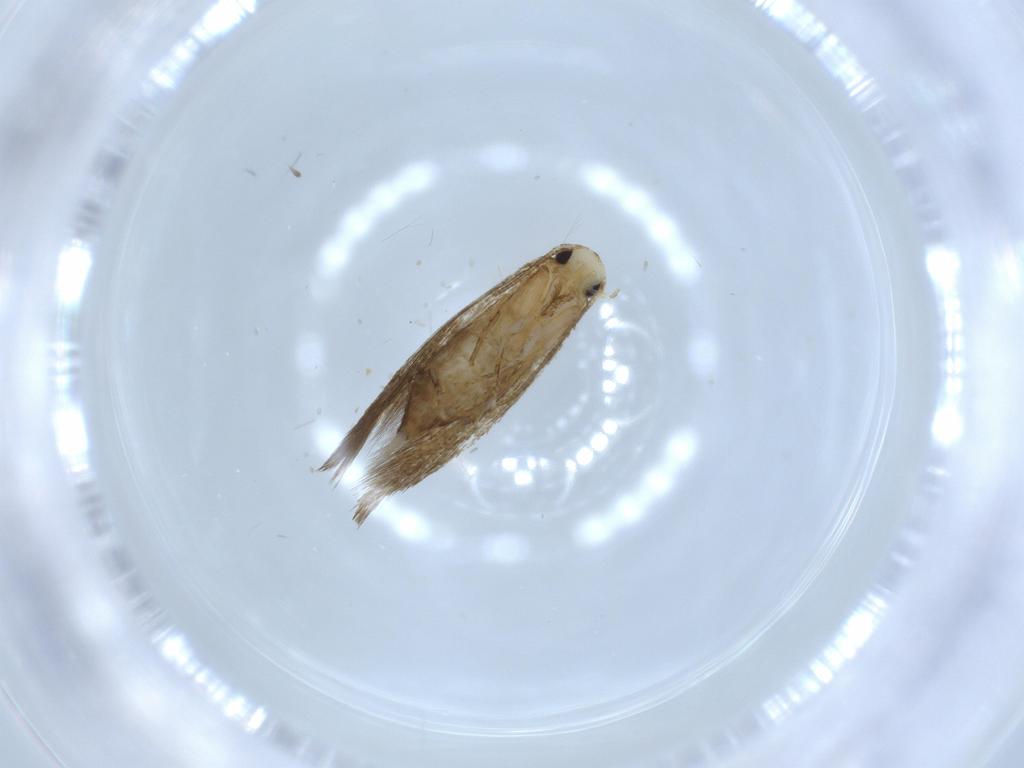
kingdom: Animalia
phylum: Arthropoda
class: Insecta
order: Lepidoptera
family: Tineidae
